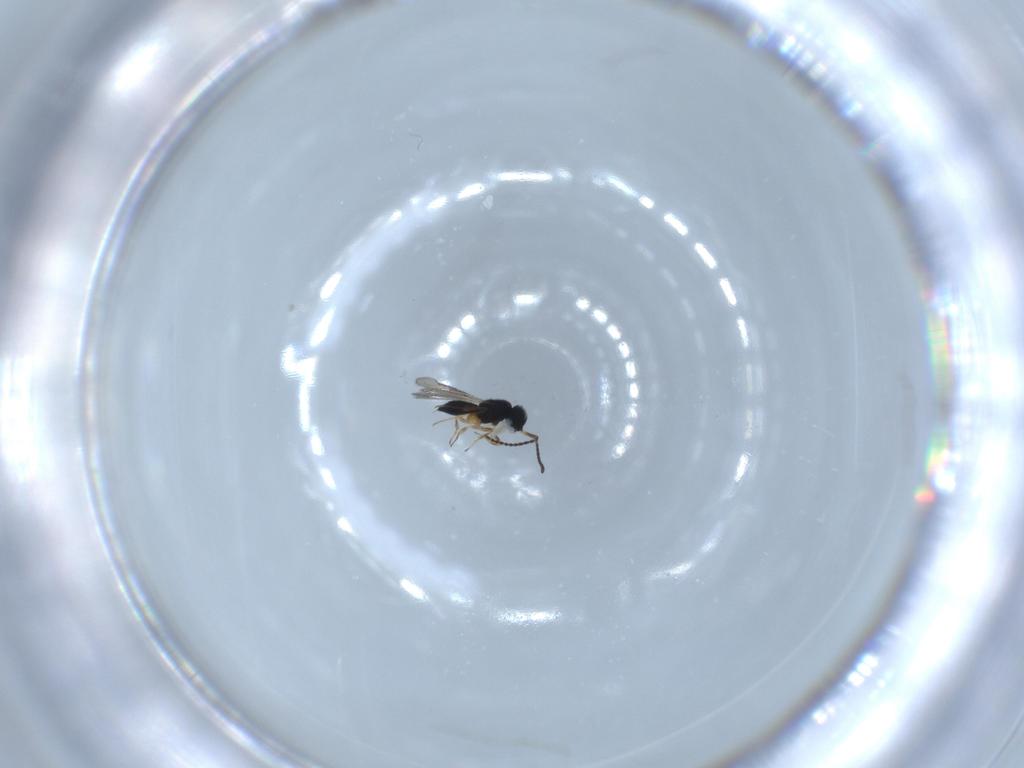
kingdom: Animalia
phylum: Arthropoda
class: Insecta
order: Hymenoptera
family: Scelionidae
